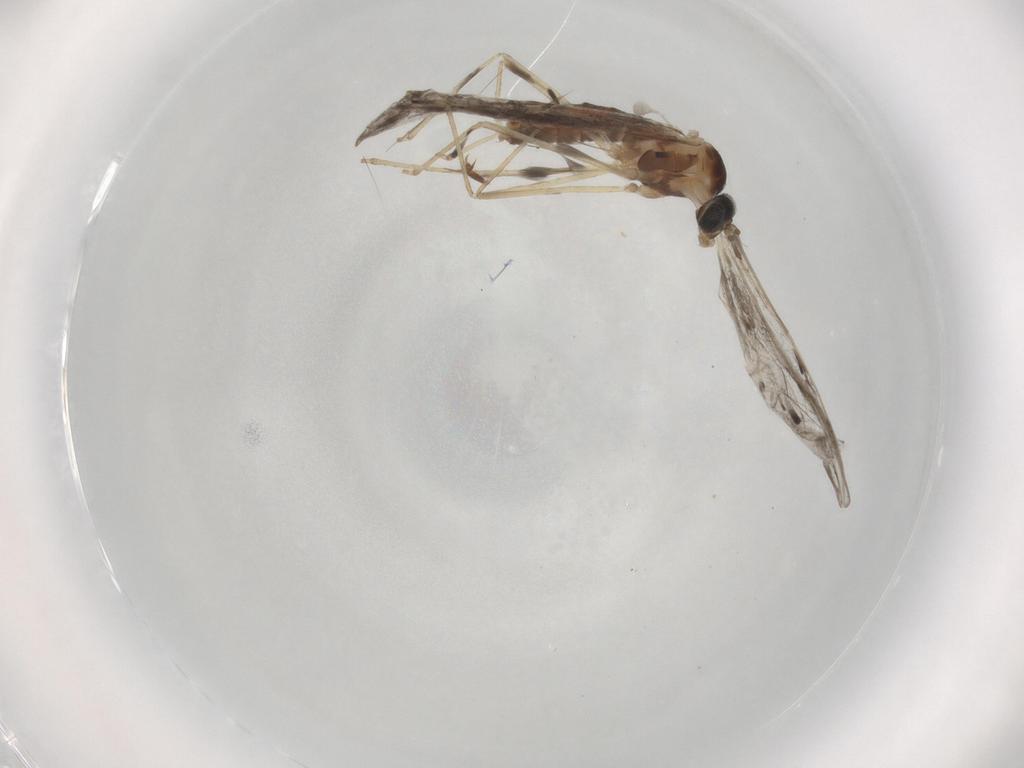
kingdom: Animalia
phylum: Arthropoda
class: Insecta
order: Diptera
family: Cecidomyiidae
